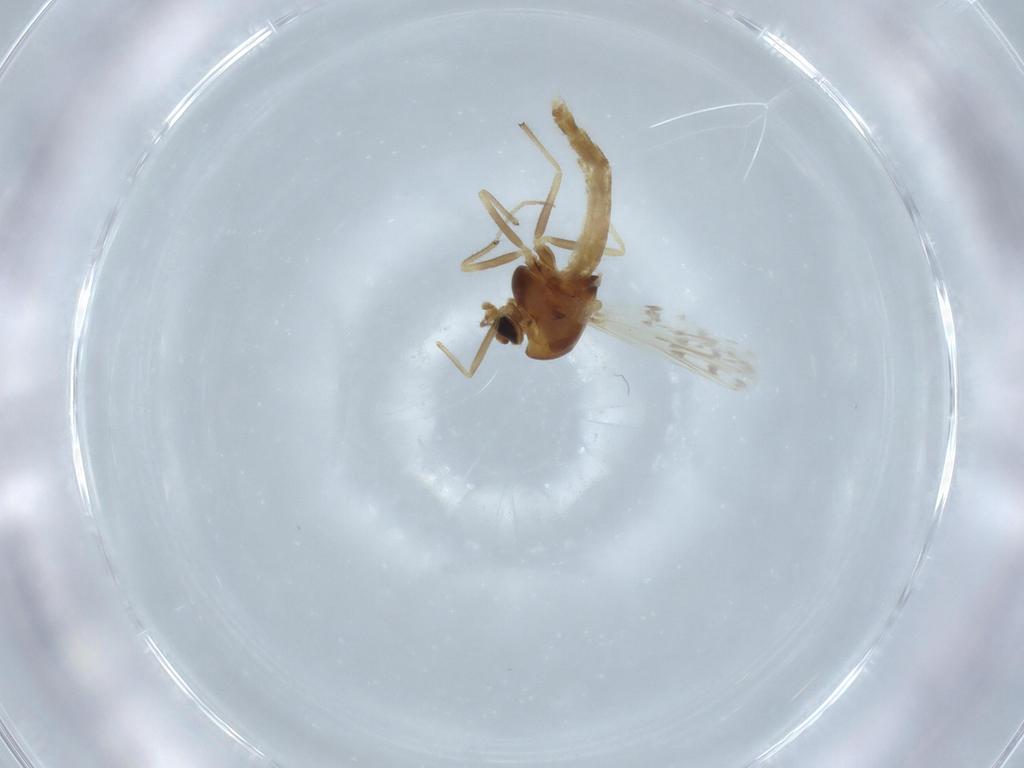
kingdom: Animalia
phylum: Arthropoda
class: Insecta
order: Diptera
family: Chironomidae
